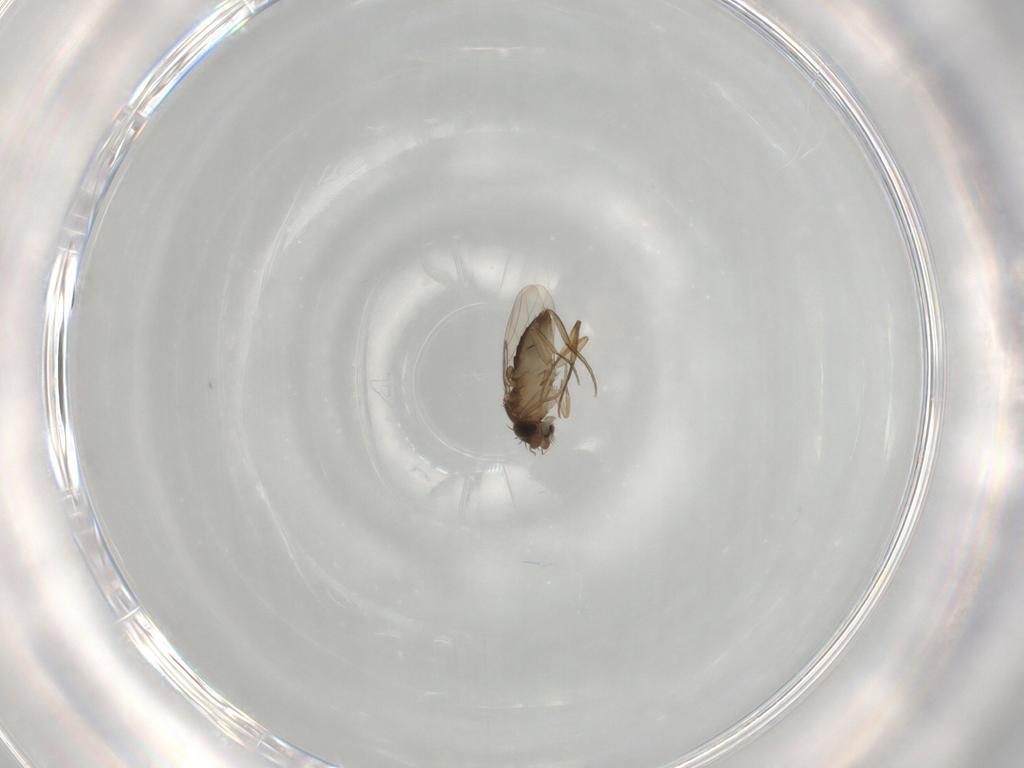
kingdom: Animalia
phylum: Arthropoda
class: Insecta
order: Diptera
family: Phoridae
